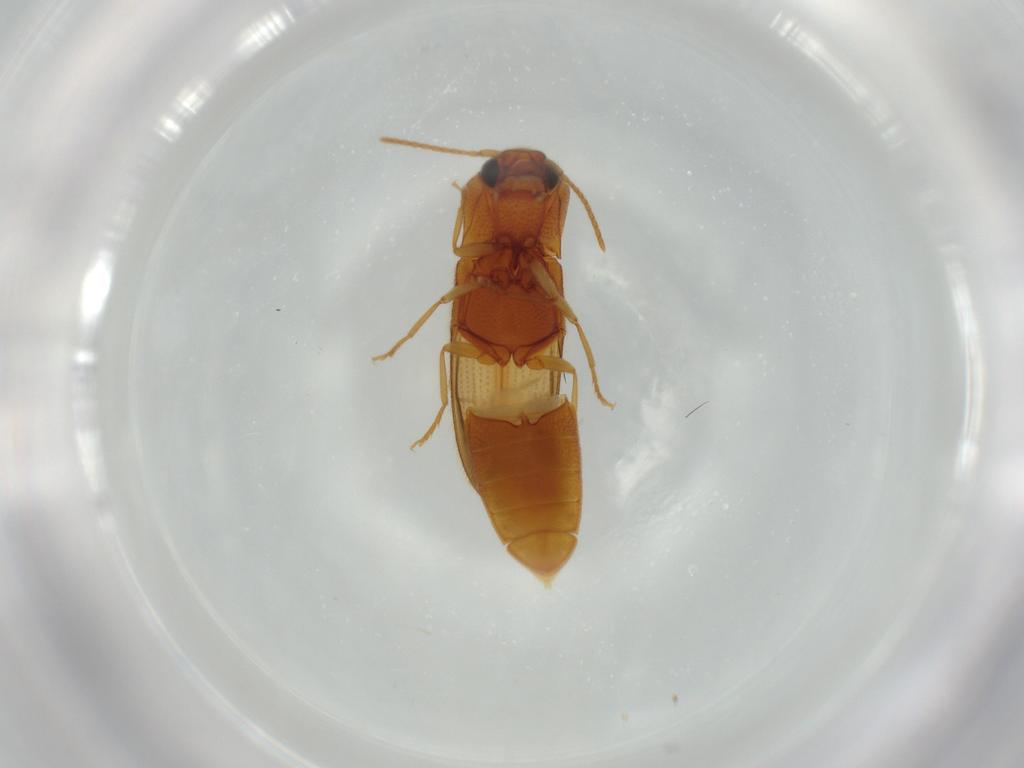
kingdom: Animalia
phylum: Arthropoda
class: Insecta
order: Coleoptera
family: Elateridae
